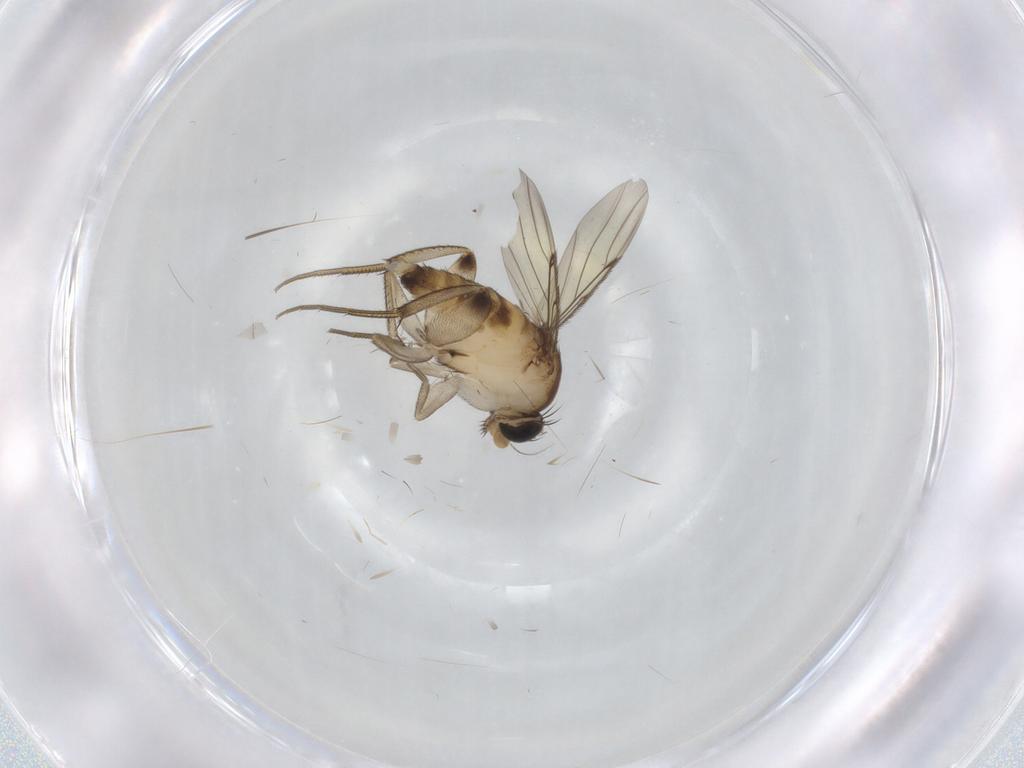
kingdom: Animalia
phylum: Arthropoda
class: Insecta
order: Diptera
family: Phoridae
